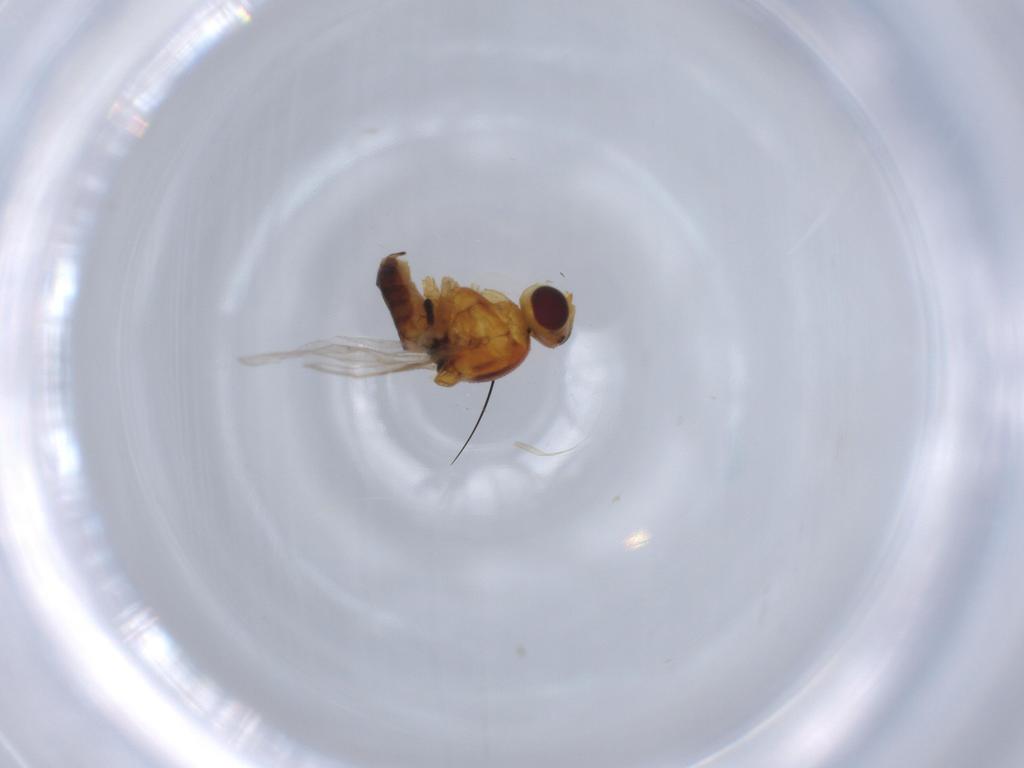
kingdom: Animalia
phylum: Arthropoda
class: Insecta
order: Diptera
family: Chloropidae
